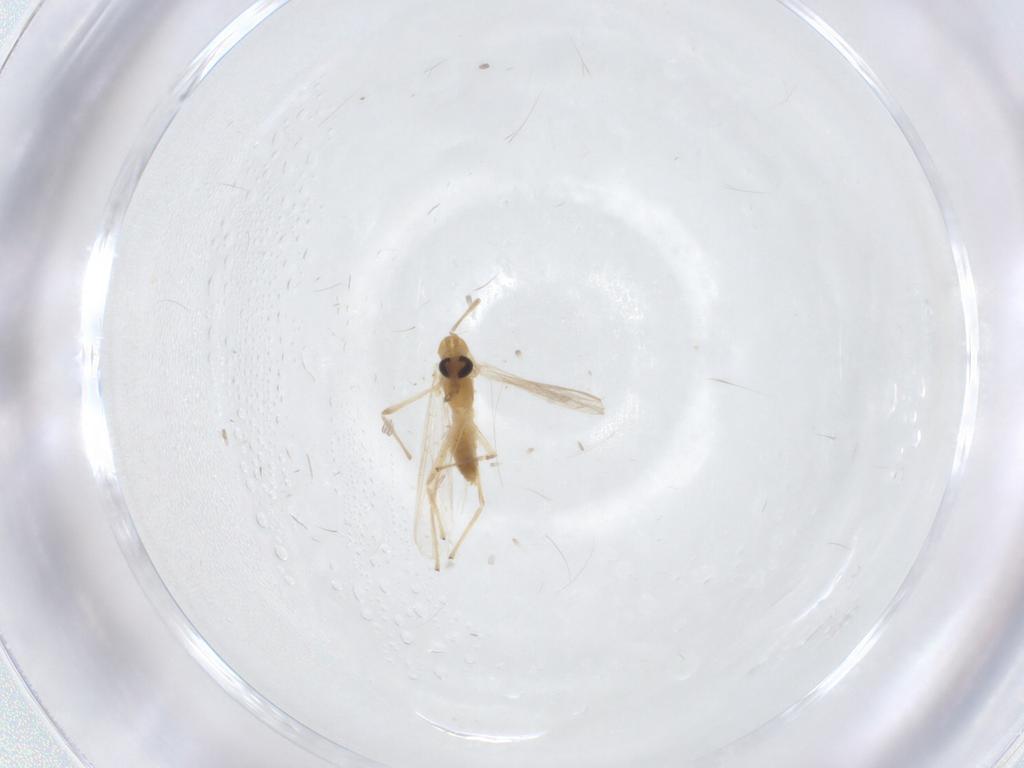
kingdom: Animalia
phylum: Arthropoda
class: Insecta
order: Diptera
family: Chironomidae
